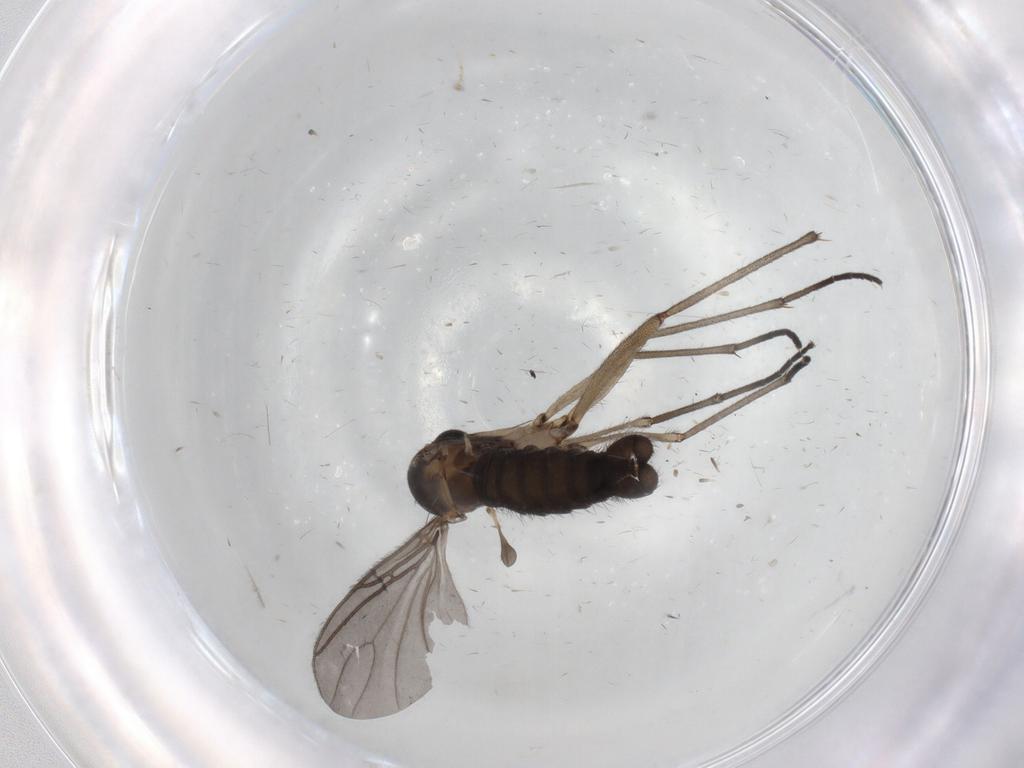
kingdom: Animalia
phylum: Arthropoda
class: Insecta
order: Diptera
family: Sciaridae
